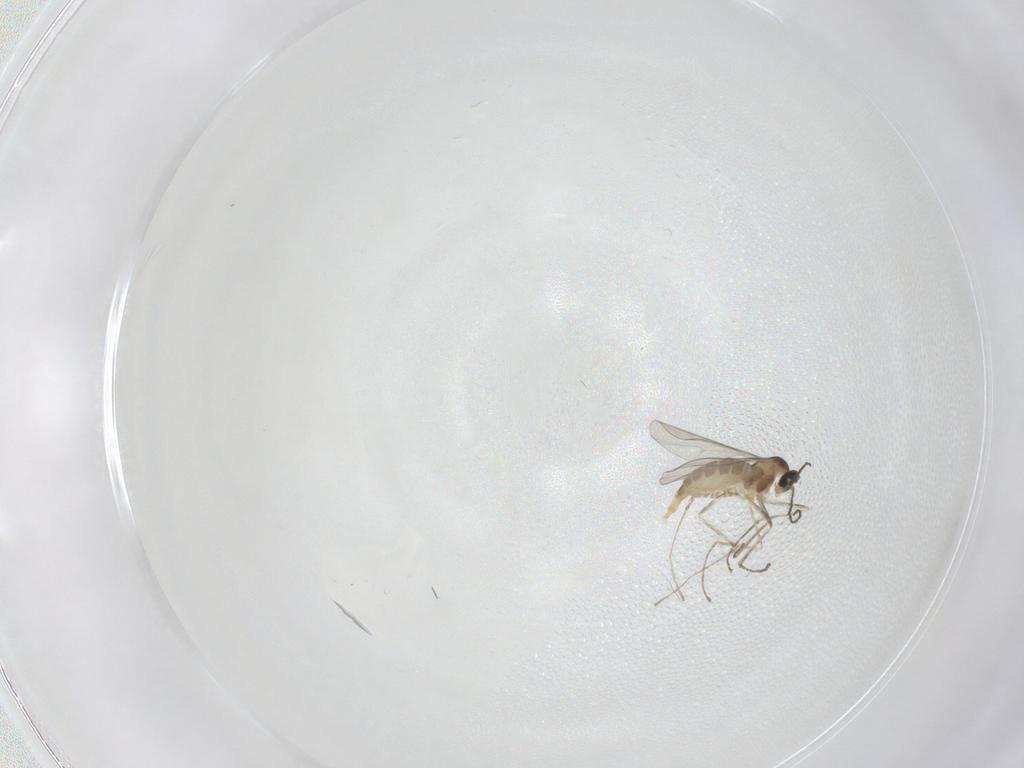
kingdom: Animalia
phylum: Arthropoda
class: Insecta
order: Diptera
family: Cecidomyiidae
